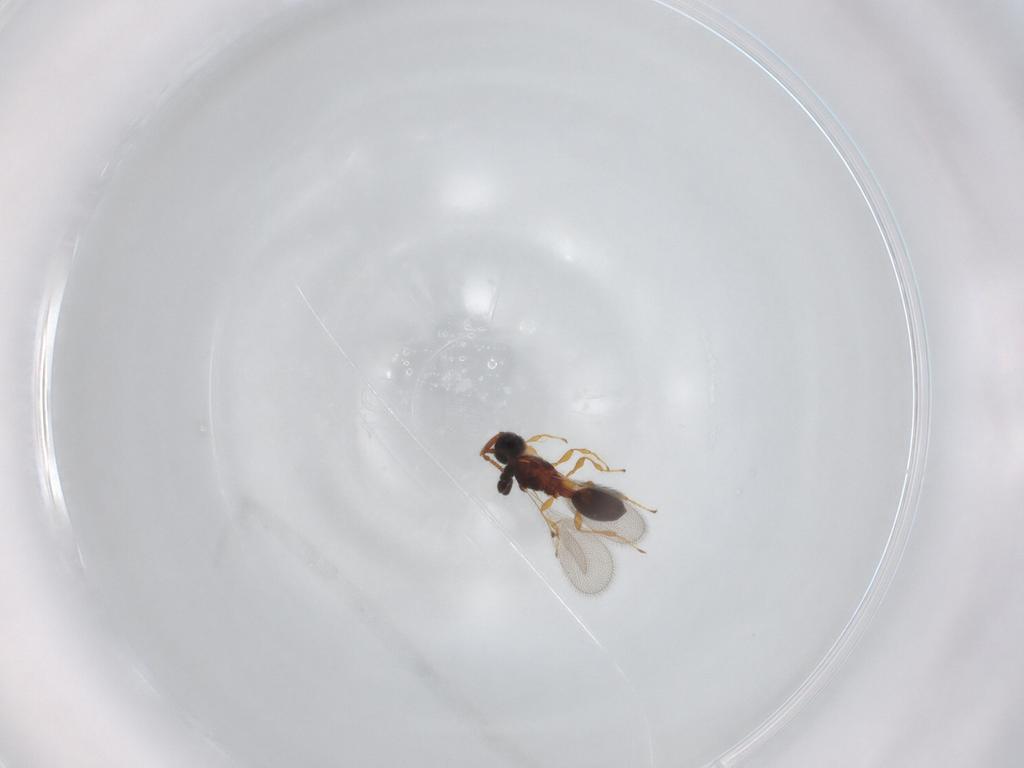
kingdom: Animalia
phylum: Arthropoda
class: Insecta
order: Hymenoptera
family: Diapriidae
